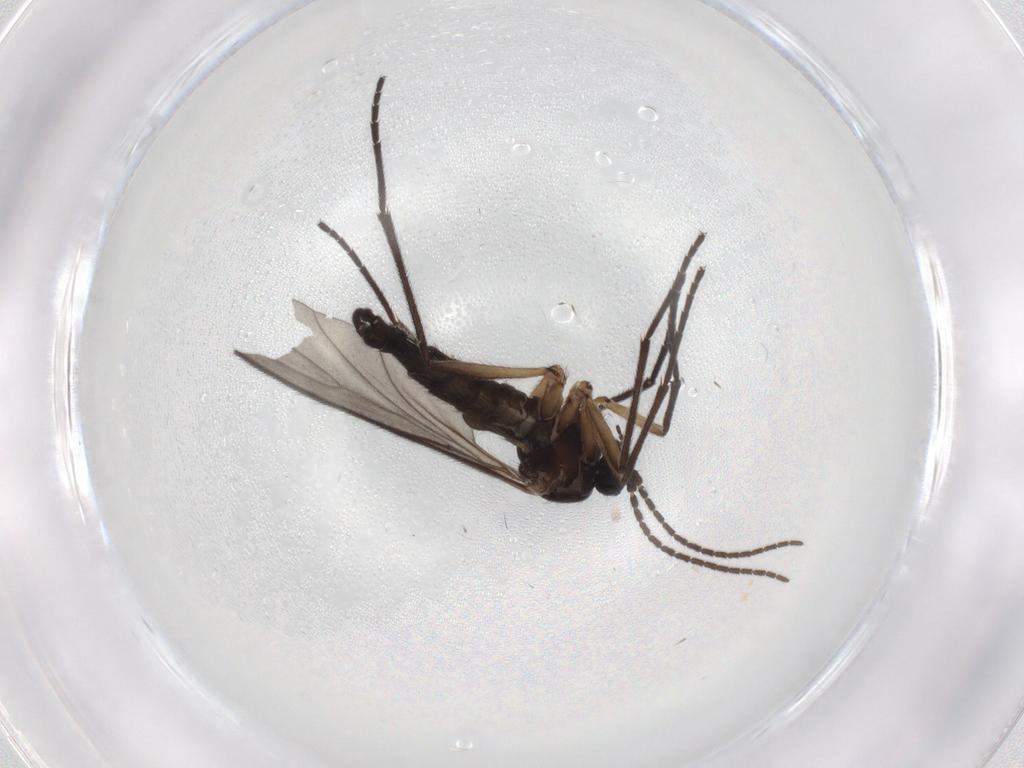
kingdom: Animalia
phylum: Arthropoda
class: Insecta
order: Diptera
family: Sciaridae
